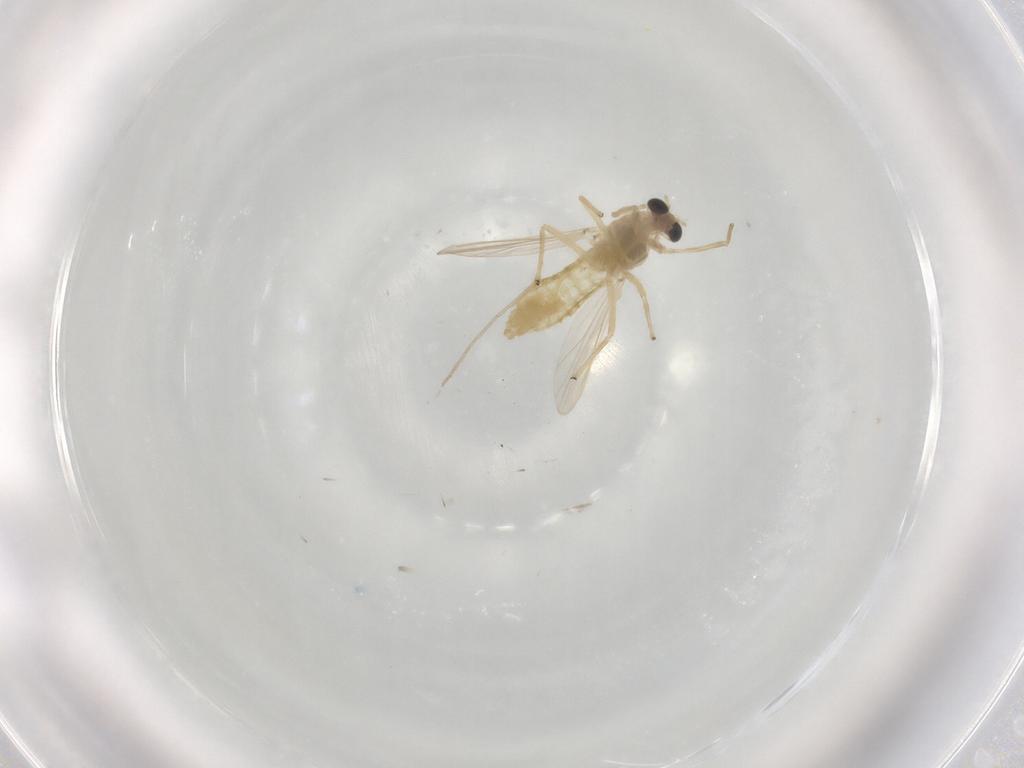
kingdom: Animalia
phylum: Arthropoda
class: Insecta
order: Diptera
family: Chironomidae
